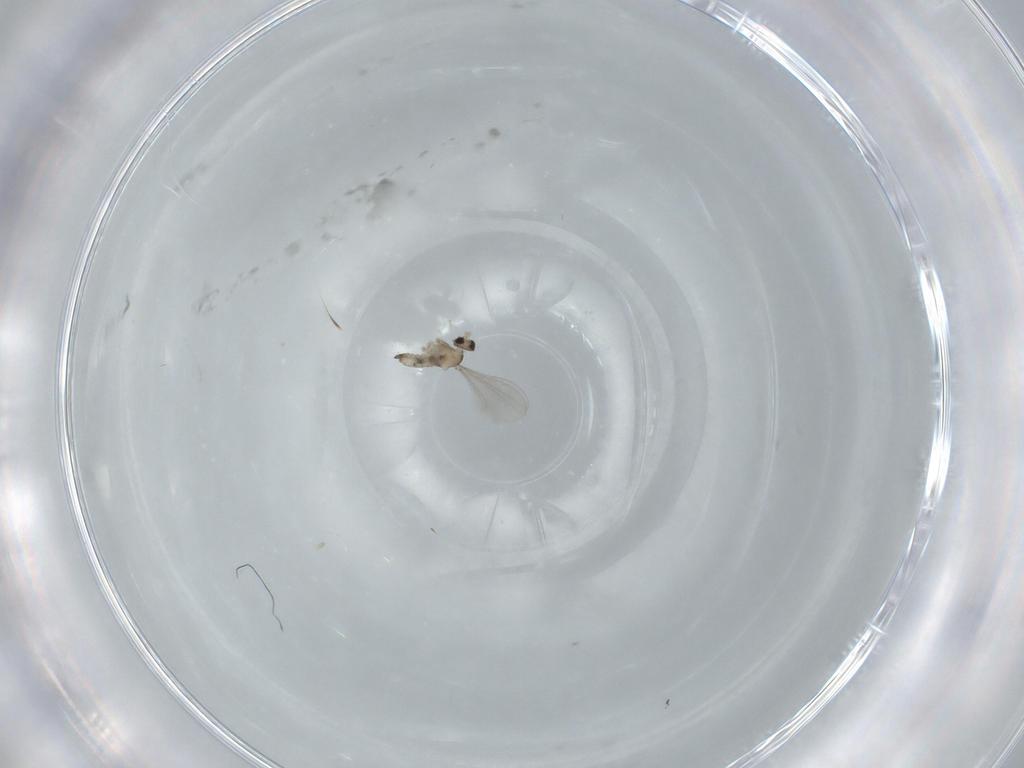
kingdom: Animalia
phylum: Arthropoda
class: Insecta
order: Diptera
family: Cecidomyiidae
